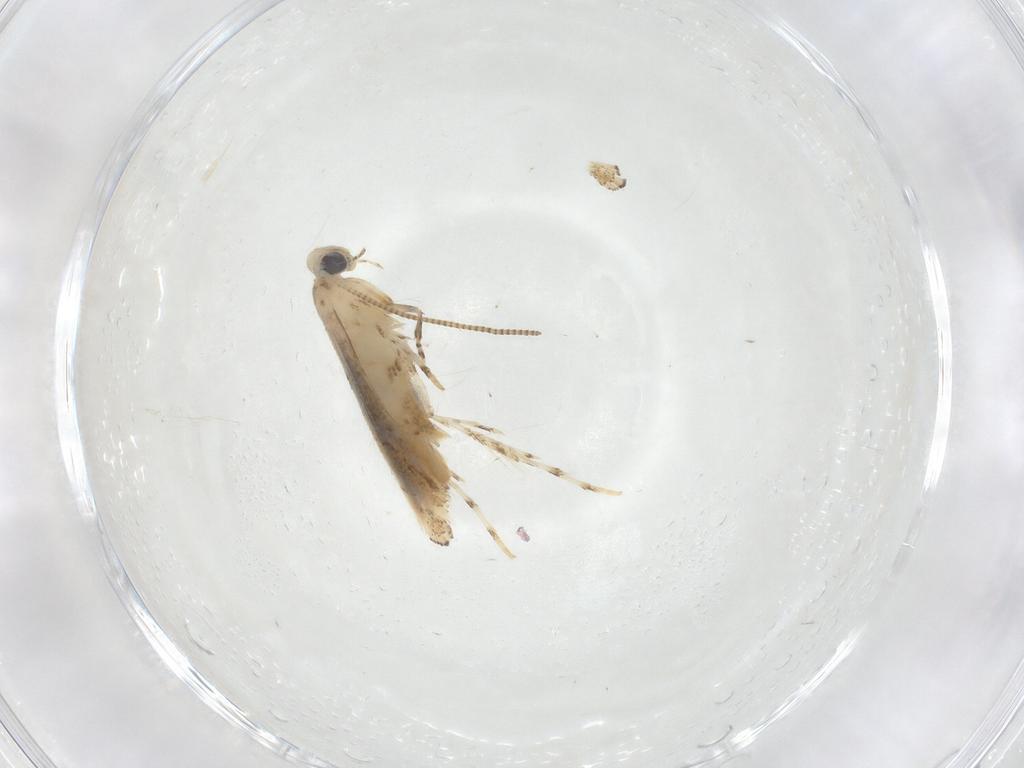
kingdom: Animalia
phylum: Arthropoda
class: Insecta
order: Lepidoptera
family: Gracillariidae
